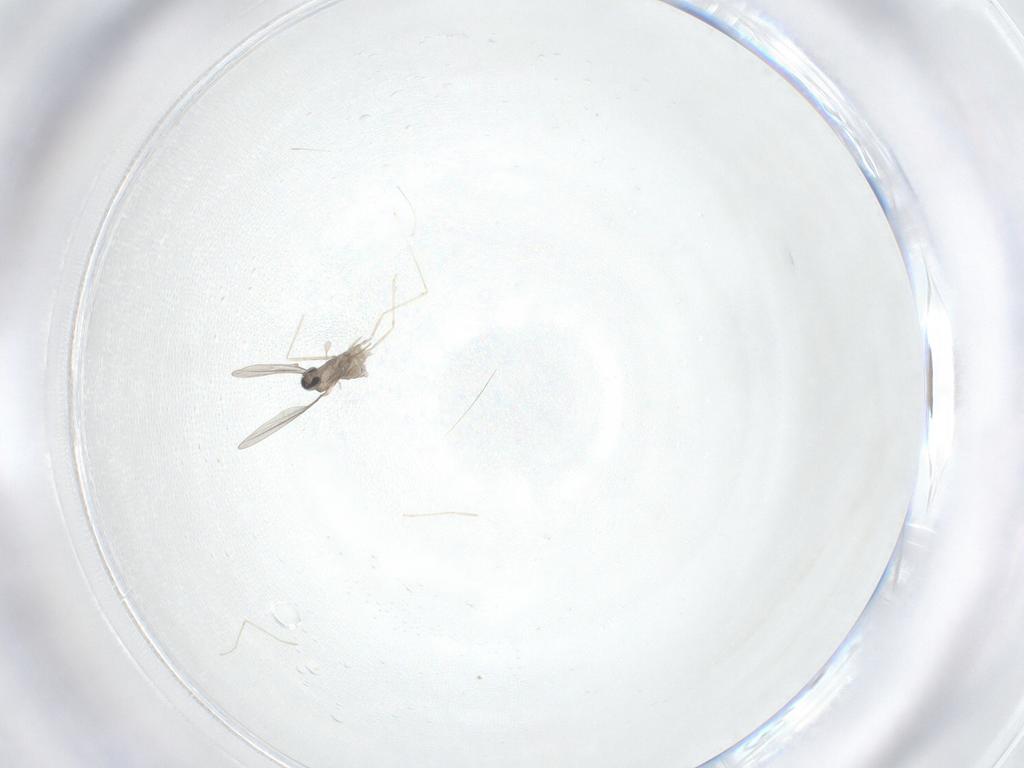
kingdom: Animalia
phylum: Arthropoda
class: Insecta
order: Diptera
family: Cecidomyiidae
